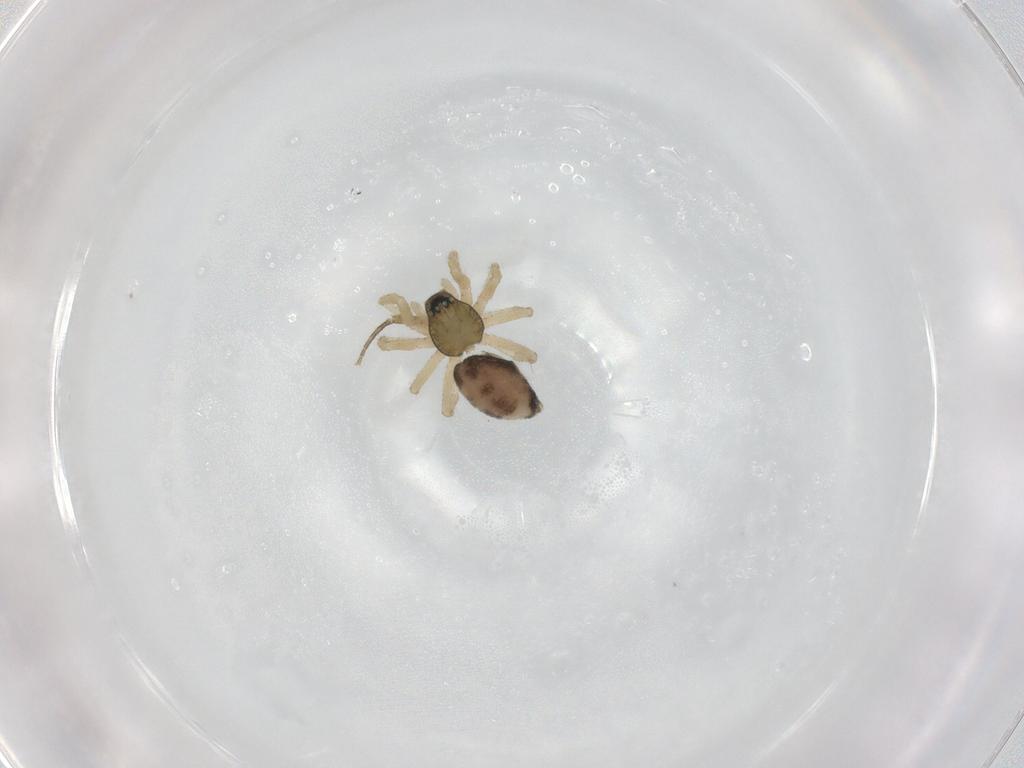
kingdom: Animalia
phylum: Arthropoda
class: Arachnida
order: Araneae
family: Linyphiidae
